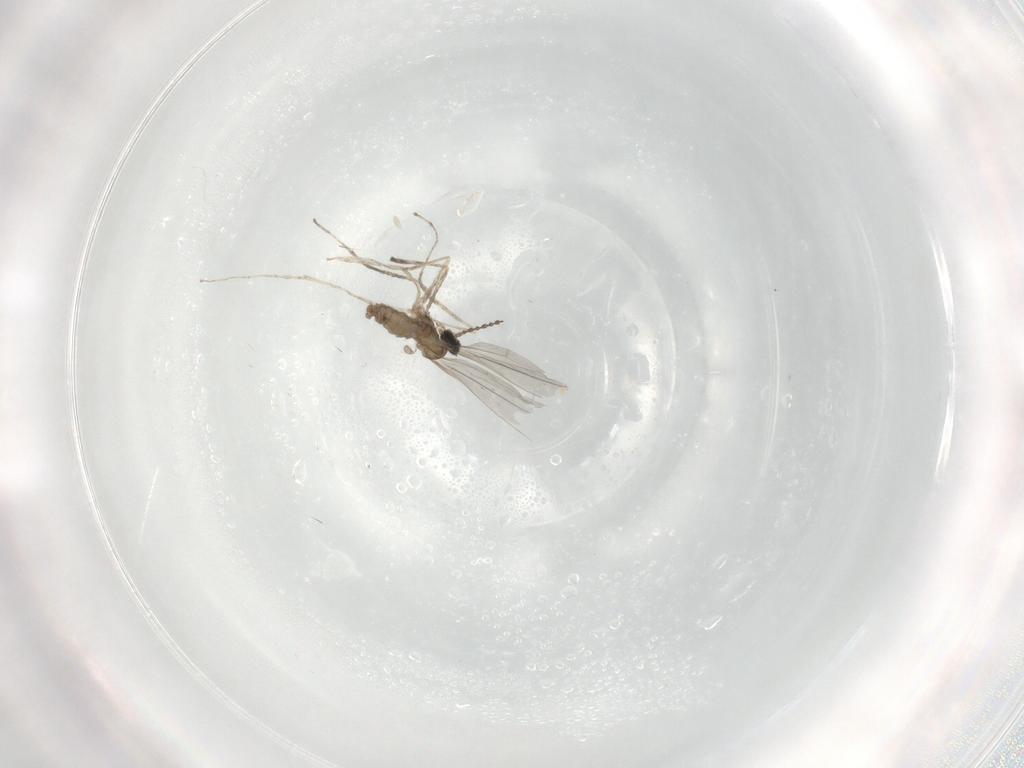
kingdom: Animalia
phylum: Arthropoda
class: Insecta
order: Diptera
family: Cecidomyiidae
